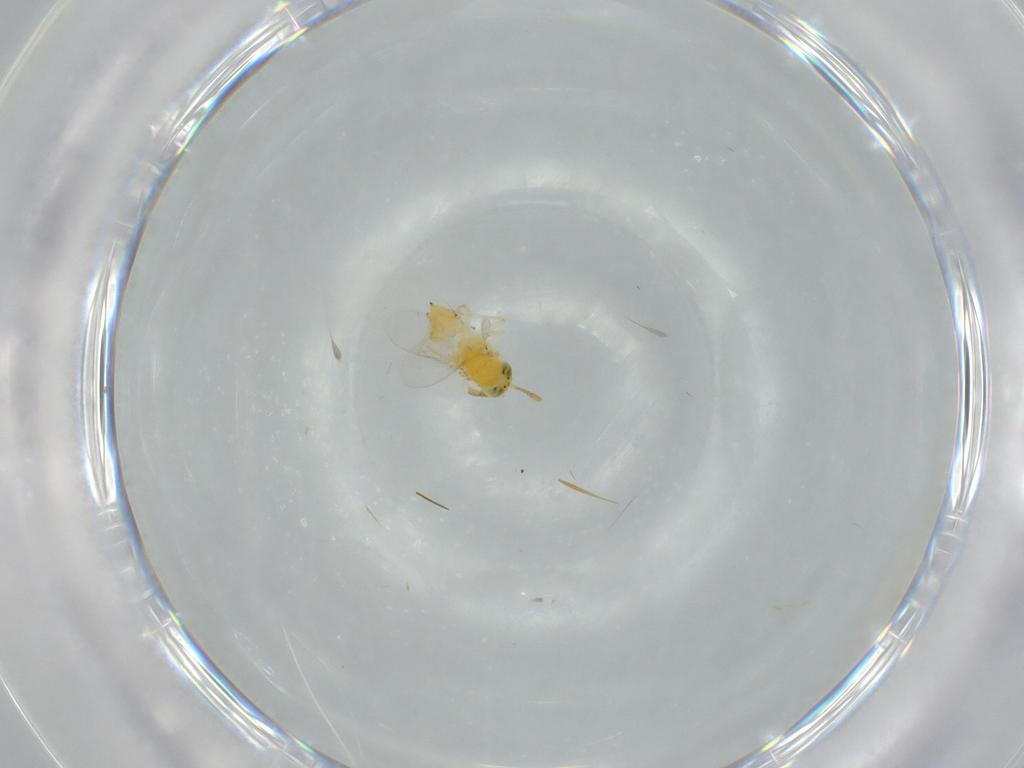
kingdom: Animalia
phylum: Arthropoda
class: Insecta
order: Hymenoptera
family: Encyrtidae
